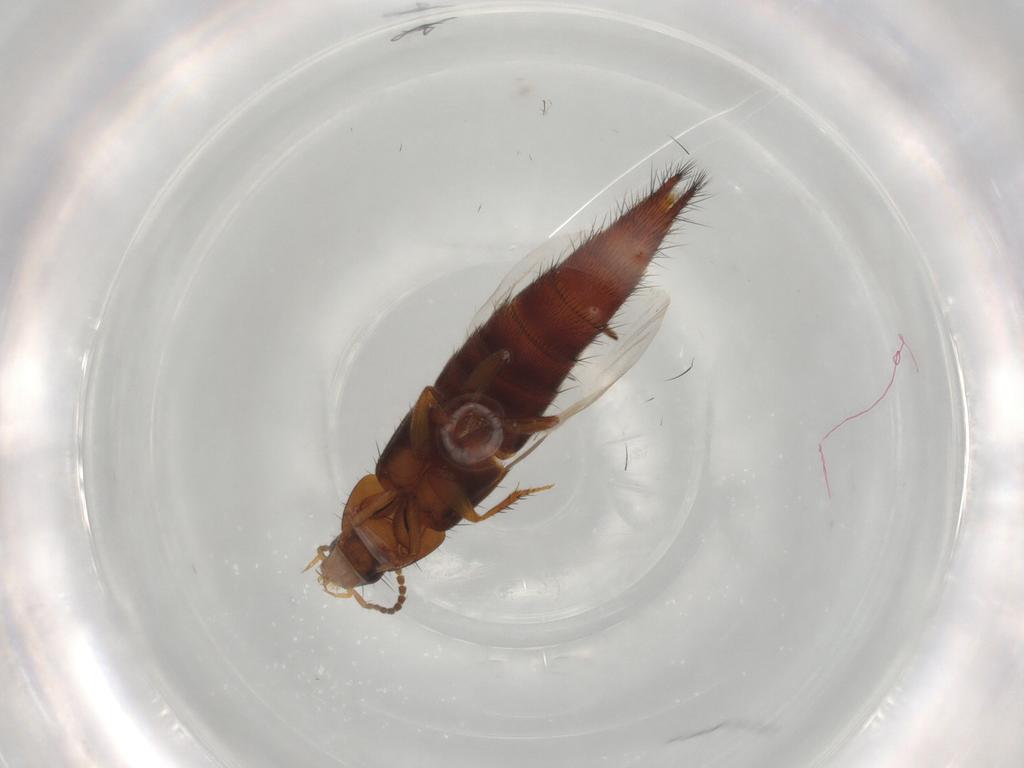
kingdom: Animalia
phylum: Arthropoda
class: Insecta
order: Coleoptera
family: Staphylinidae
